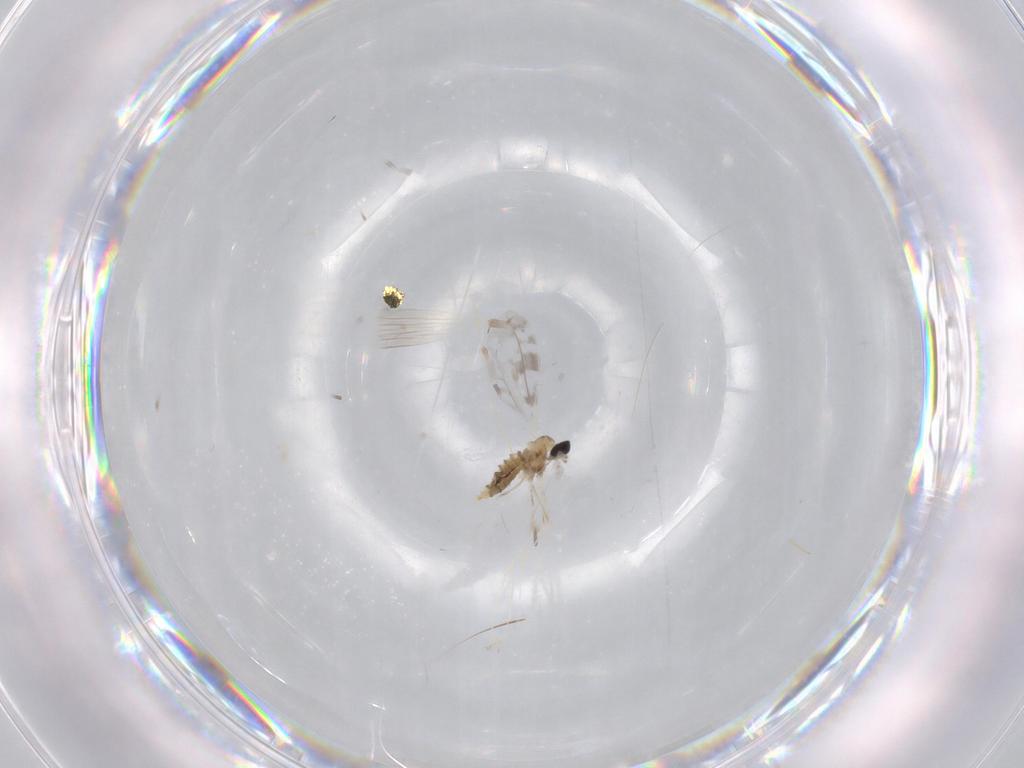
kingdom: Animalia
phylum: Arthropoda
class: Insecta
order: Diptera
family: Cecidomyiidae
